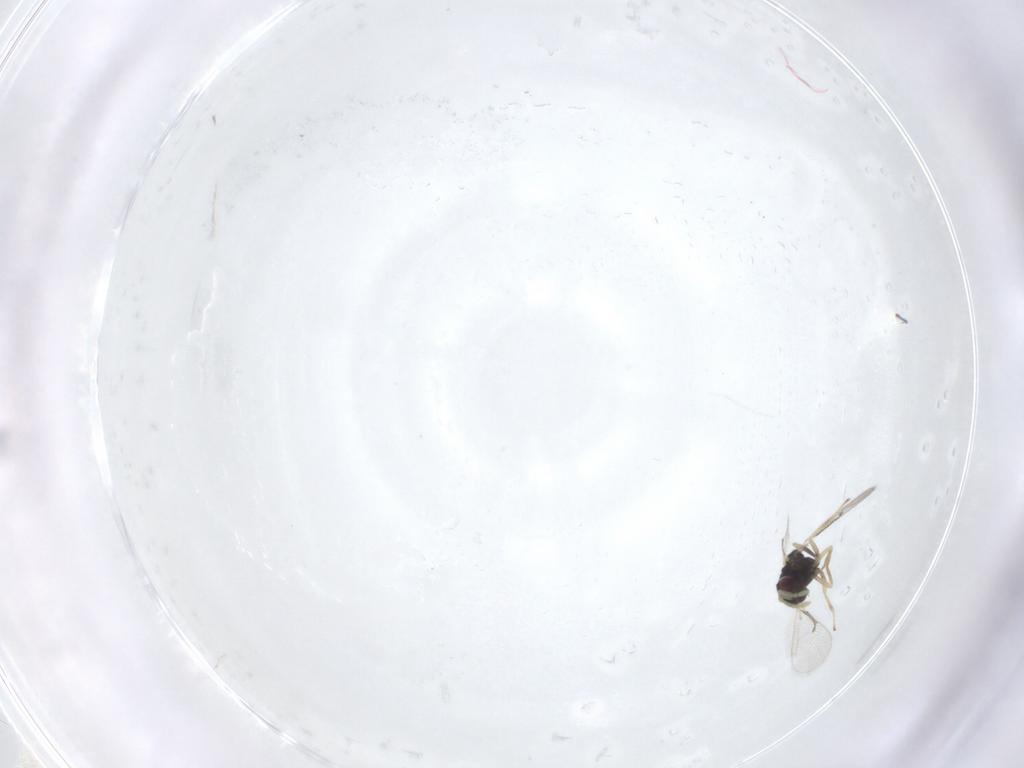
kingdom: Animalia
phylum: Arthropoda
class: Insecta
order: Hymenoptera
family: Eulophidae
